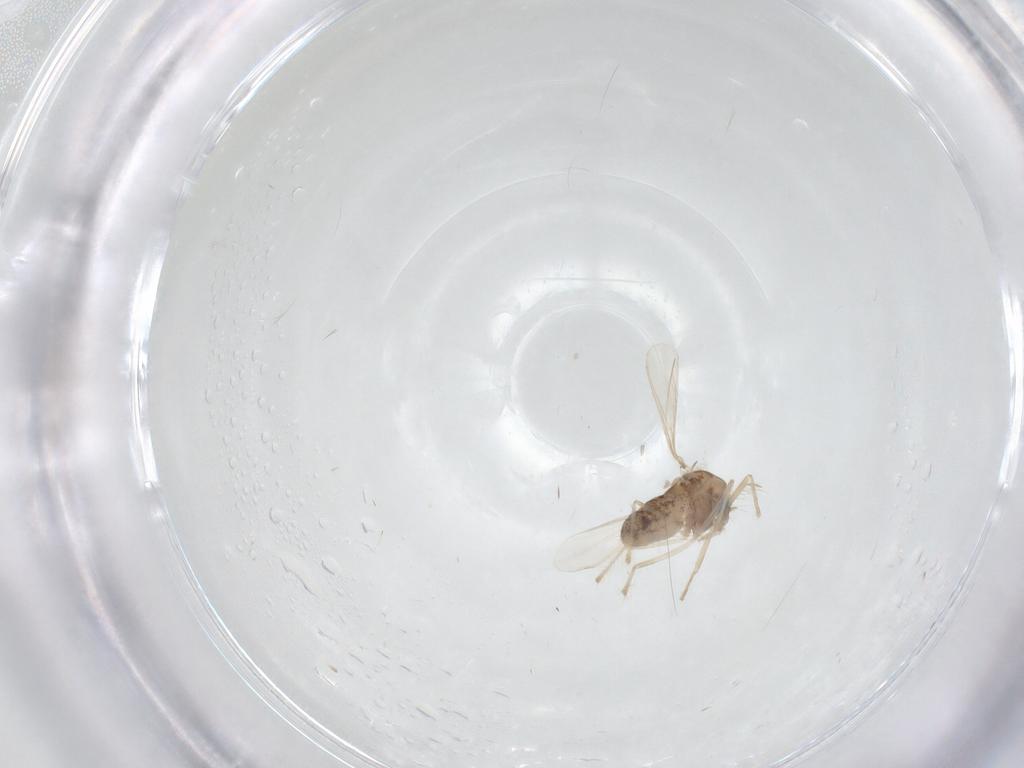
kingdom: Animalia
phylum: Arthropoda
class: Insecta
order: Diptera
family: Chironomidae
